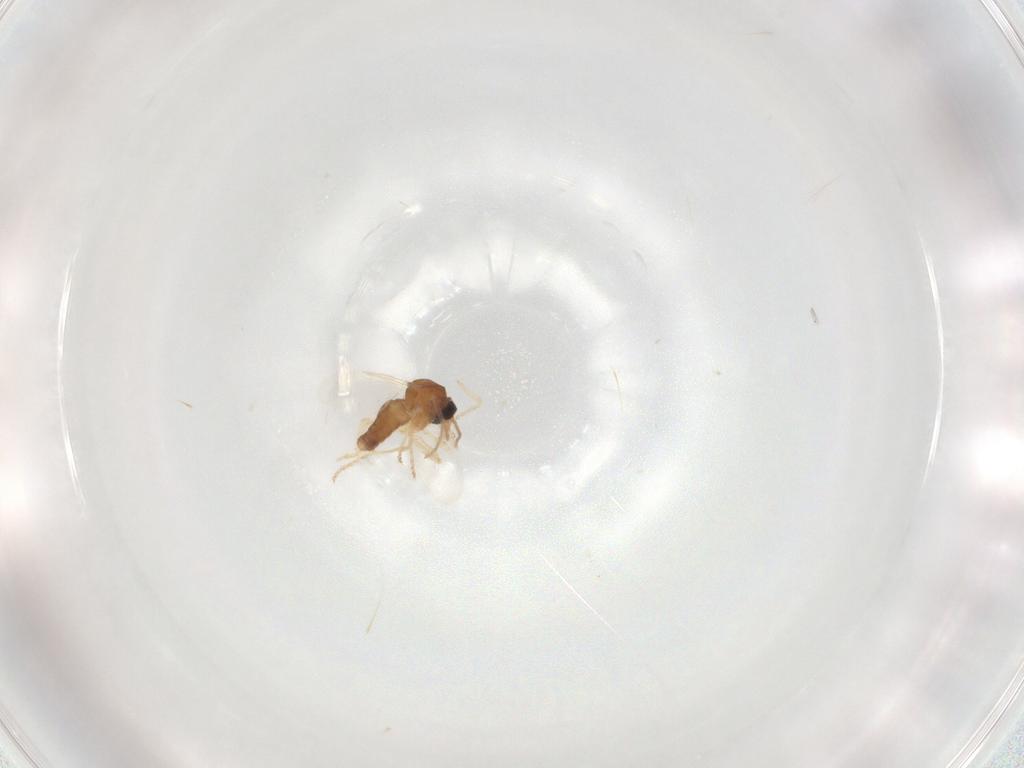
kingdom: Animalia
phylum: Arthropoda
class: Insecta
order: Diptera
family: Ceratopogonidae
